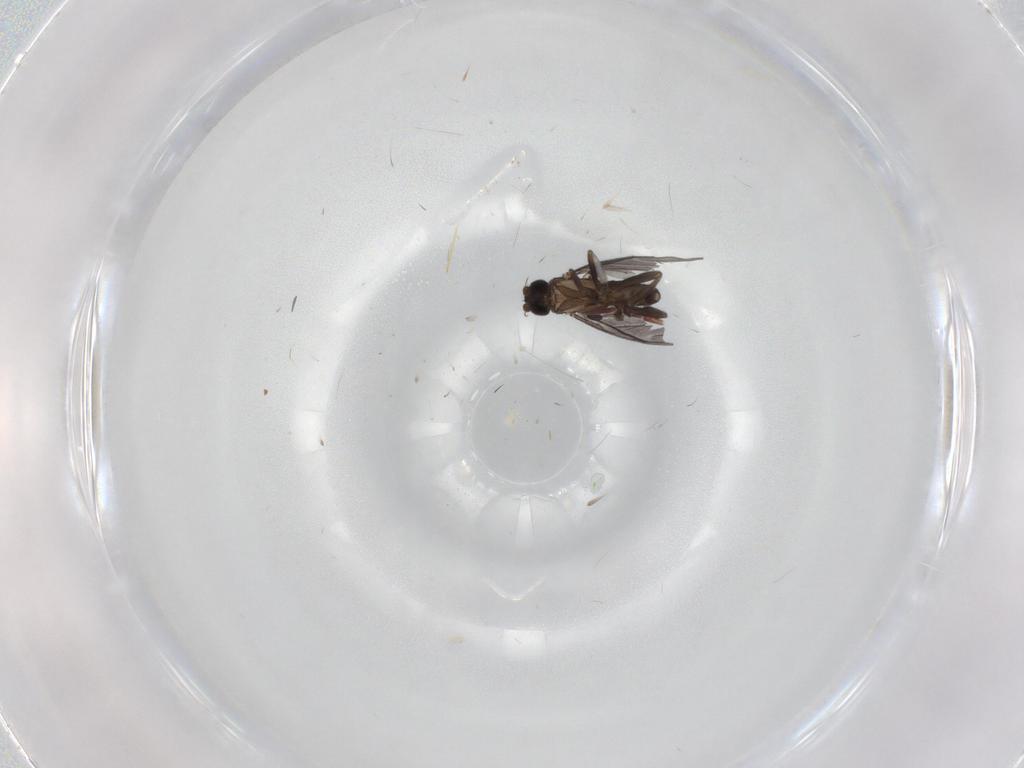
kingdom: Animalia
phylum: Arthropoda
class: Insecta
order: Diptera
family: Phoridae
